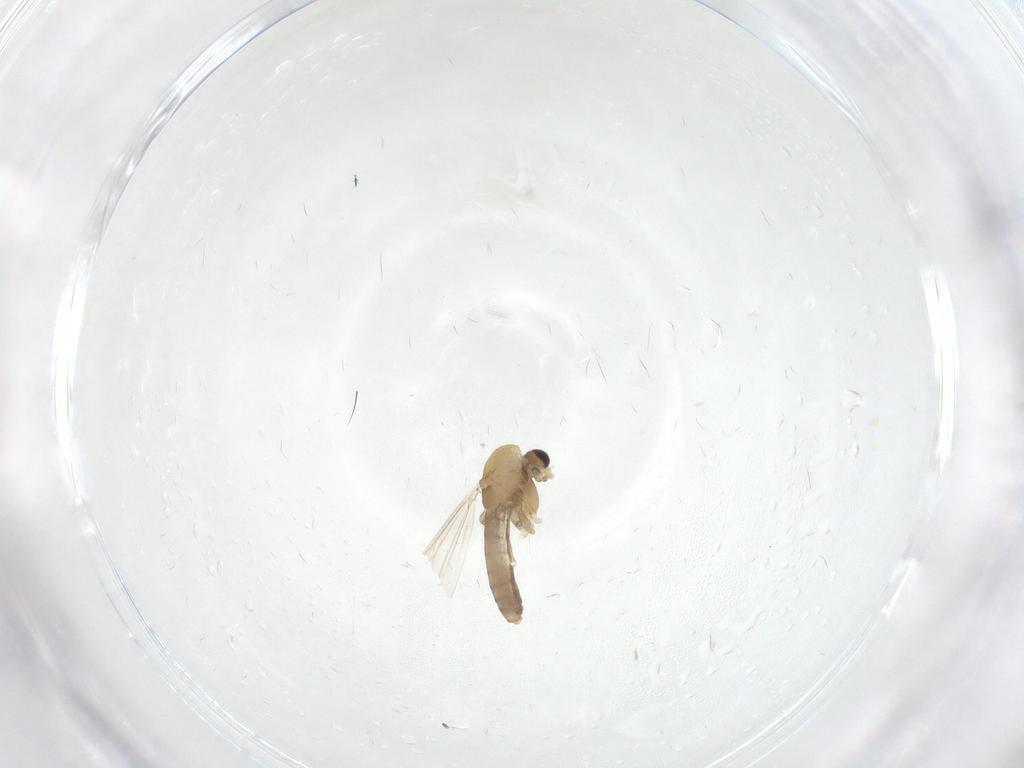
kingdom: Animalia
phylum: Arthropoda
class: Insecta
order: Diptera
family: Chironomidae
